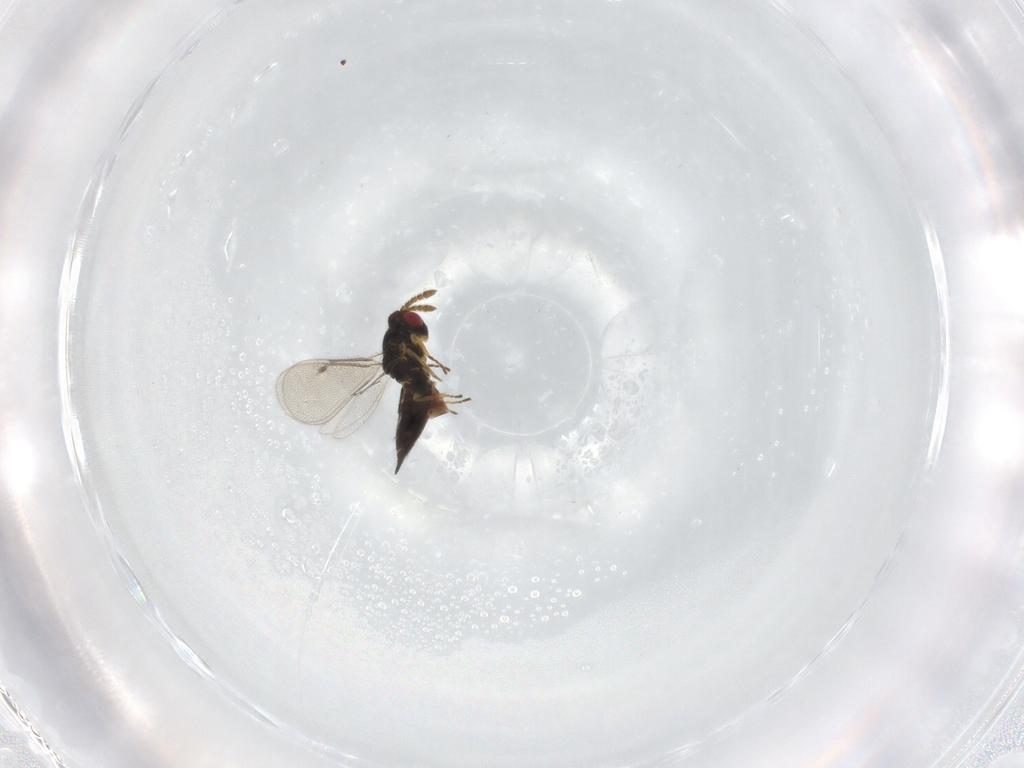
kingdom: Animalia
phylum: Arthropoda
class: Insecta
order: Hymenoptera
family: Eulophidae
